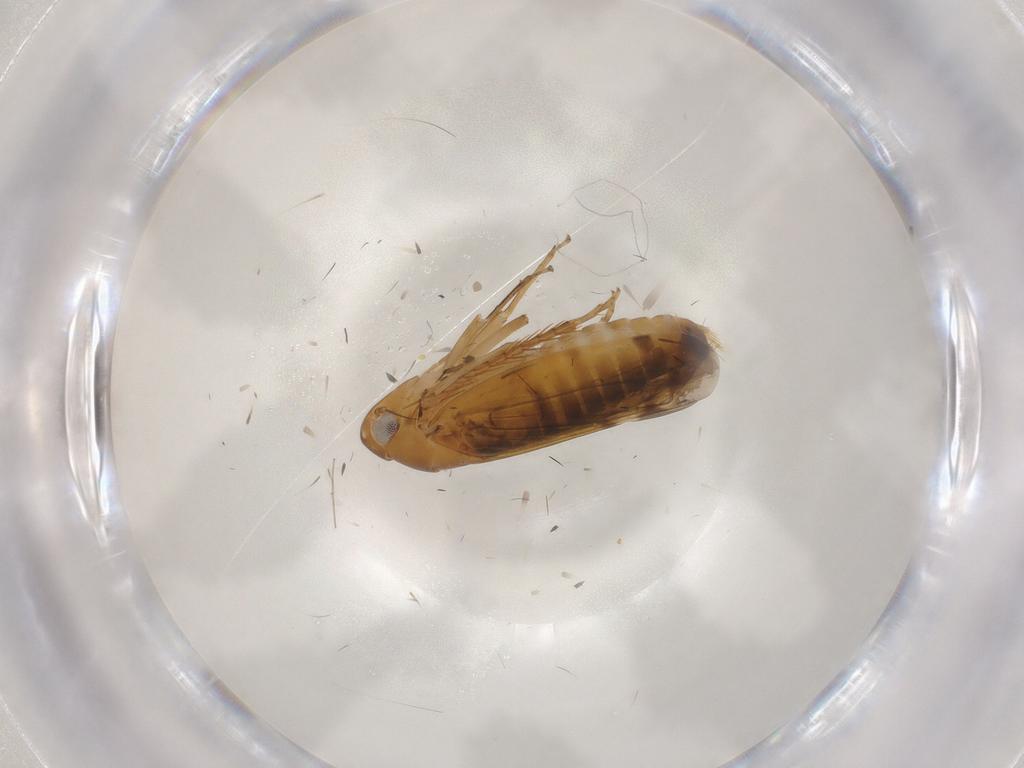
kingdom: Animalia
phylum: Arthropoda
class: Insecta
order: Hemiptera
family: Cicadellidae
